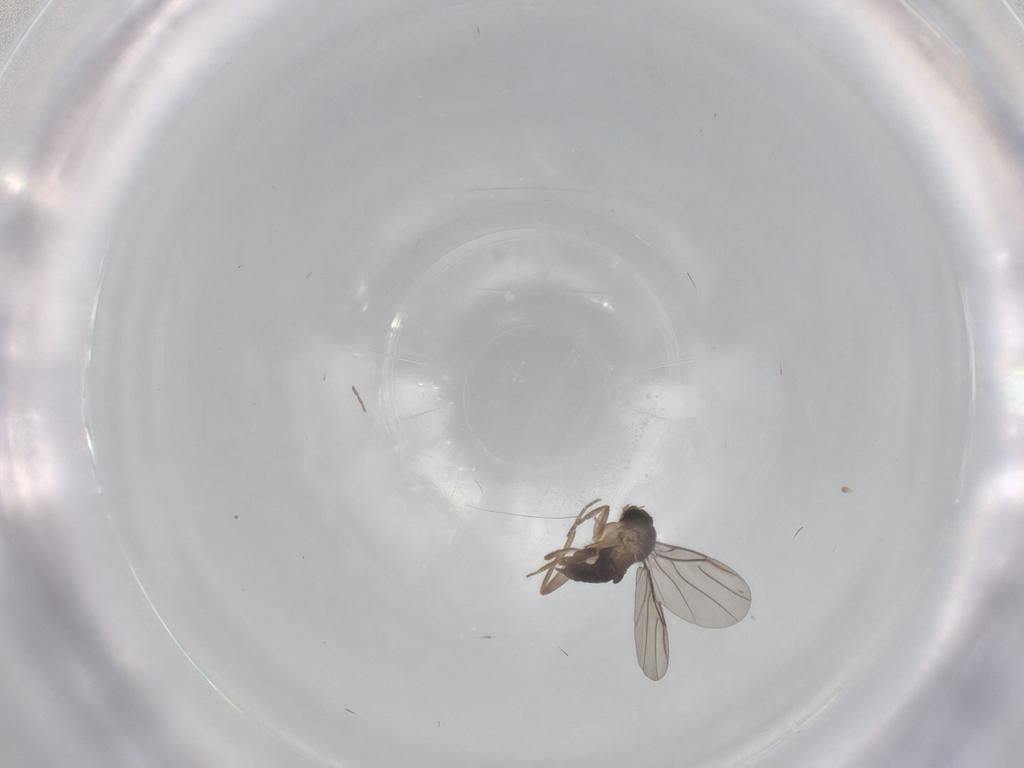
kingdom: Animalia
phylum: Arthropoda
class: Insecta
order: Diptera
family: Phoridae
